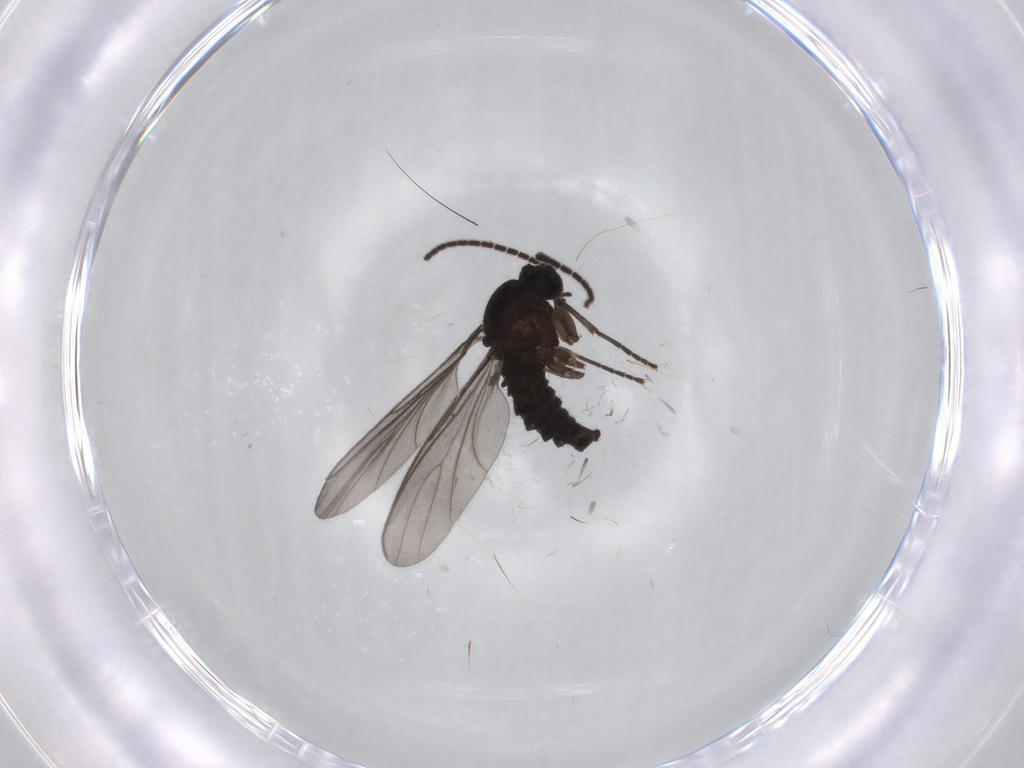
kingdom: Animalia
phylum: Arthropoda
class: Insecta
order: Diptera
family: Sciaridae
